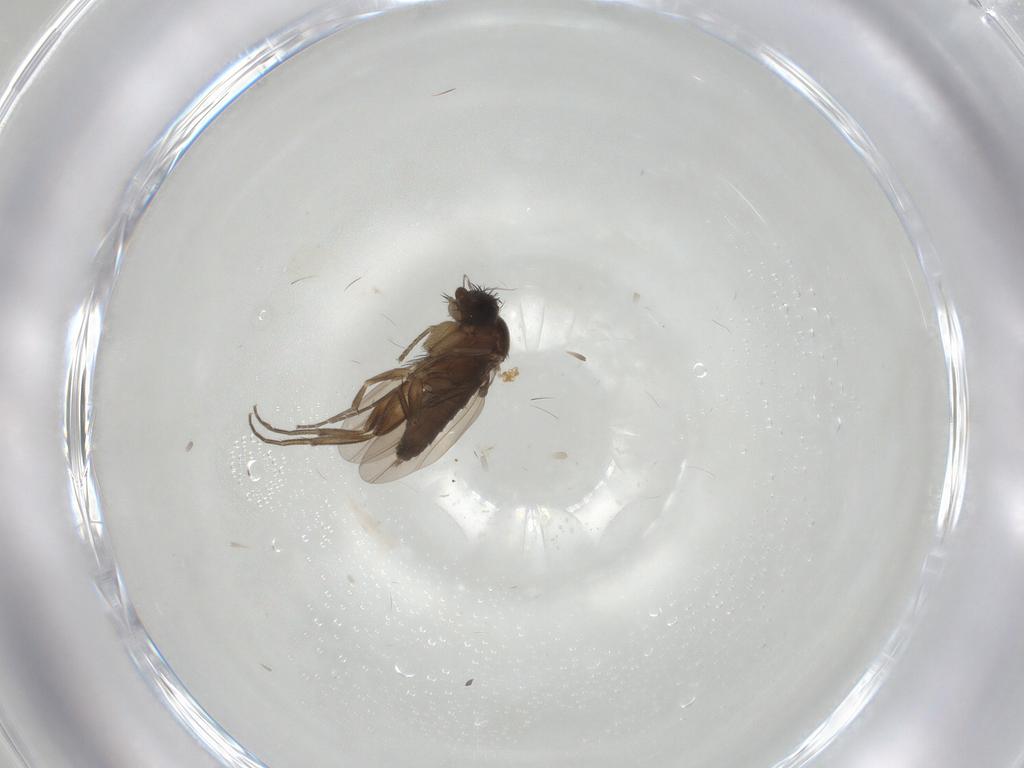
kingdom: Animalia
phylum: Arthropoda
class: Insecta
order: Diptera
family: Phoridae
